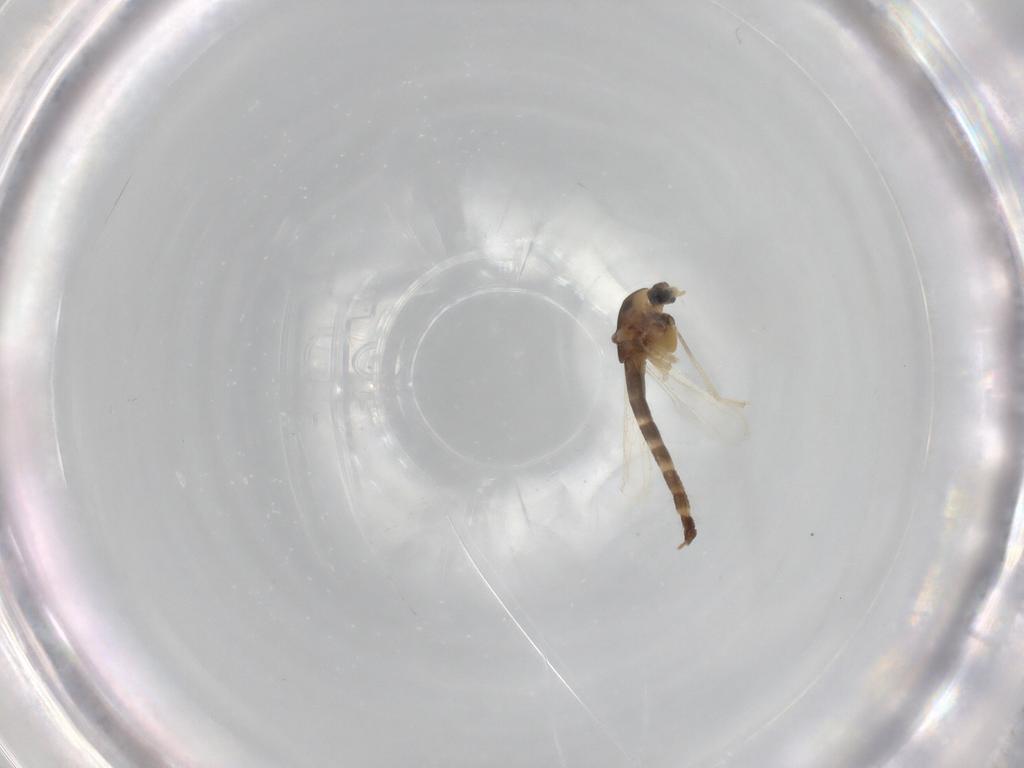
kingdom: Animalia
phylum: Arthropoda
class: Insecta
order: Diptera
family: Chironomidae
